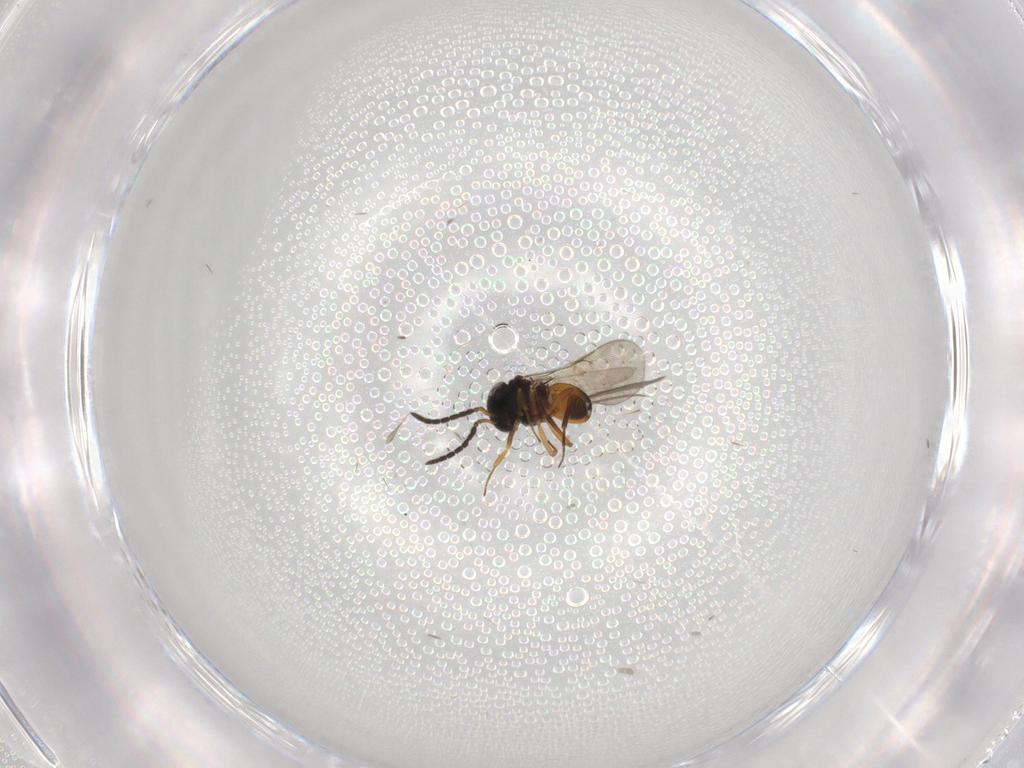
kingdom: Animalia
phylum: Arthropoda
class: Insecta
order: Hymenoptera
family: Scelionidae
